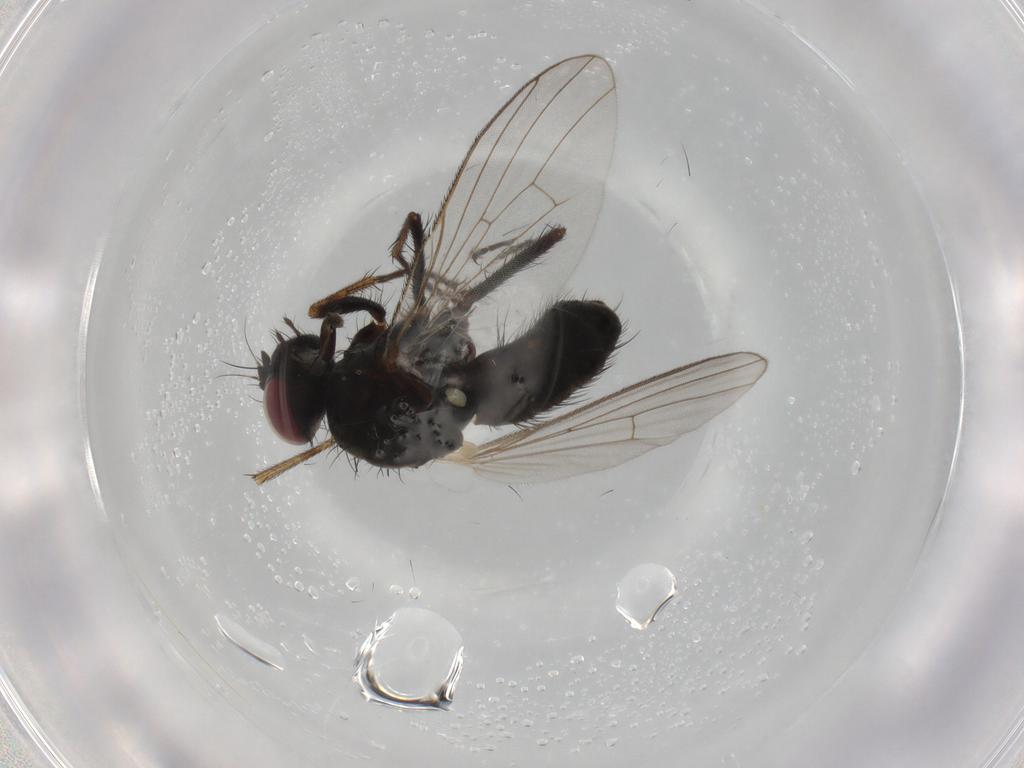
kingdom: Animalia
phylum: Arthropoda
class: Insecta
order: Diptera
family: Muscidae
